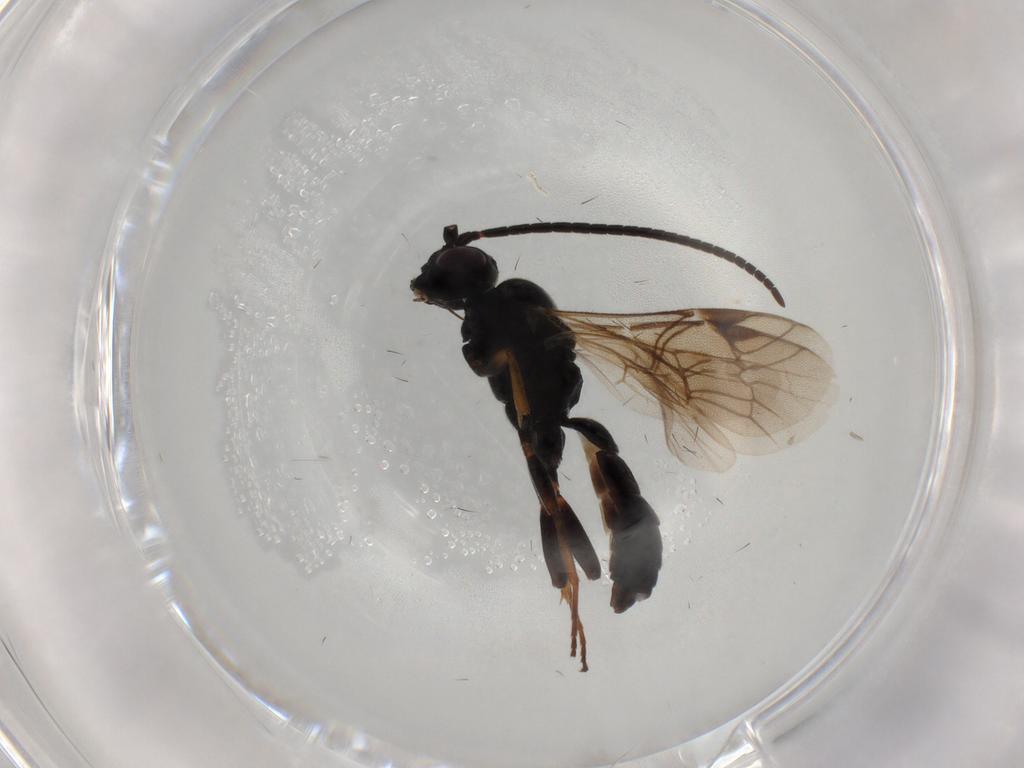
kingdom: Animalia
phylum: Arthropoda
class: Insecta
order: Hymenoptera
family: Ichneumonidae
